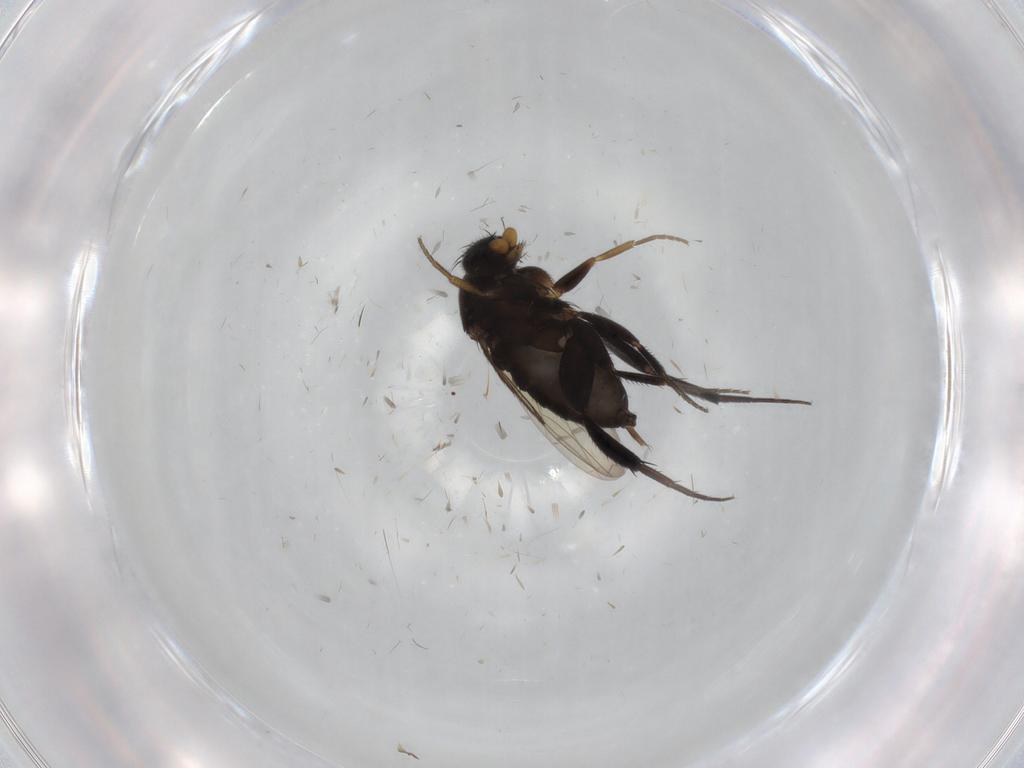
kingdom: Animalia
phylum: Arthropoda
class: Insecta
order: Diptera
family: Phoridae
